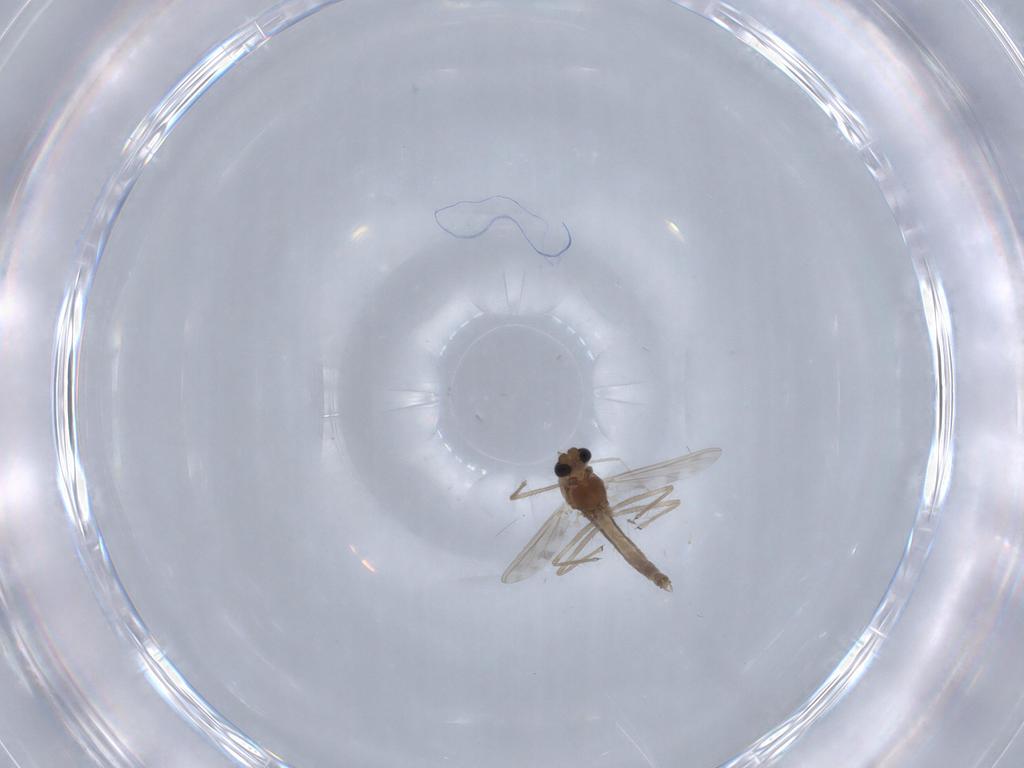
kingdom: Animalia
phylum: Arthropoda
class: Insecta
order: Diptera
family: Chironomidae
